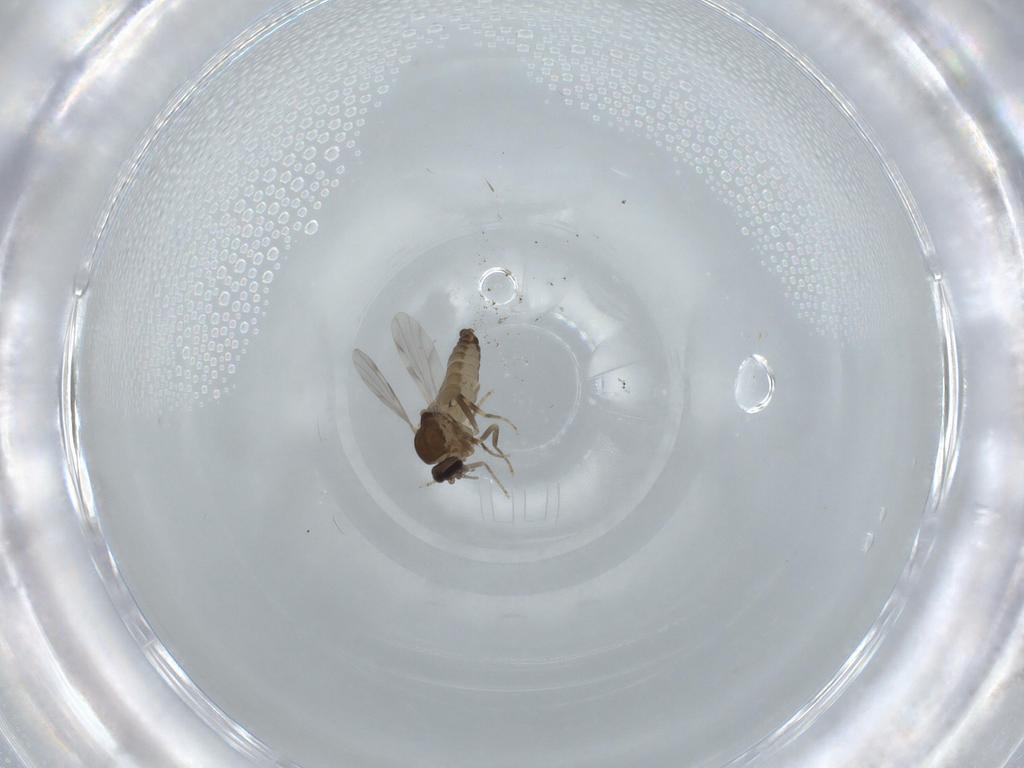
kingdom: Animalia
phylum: Arthropoda
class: Insecta
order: Diptera
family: Ceratopogonidae
